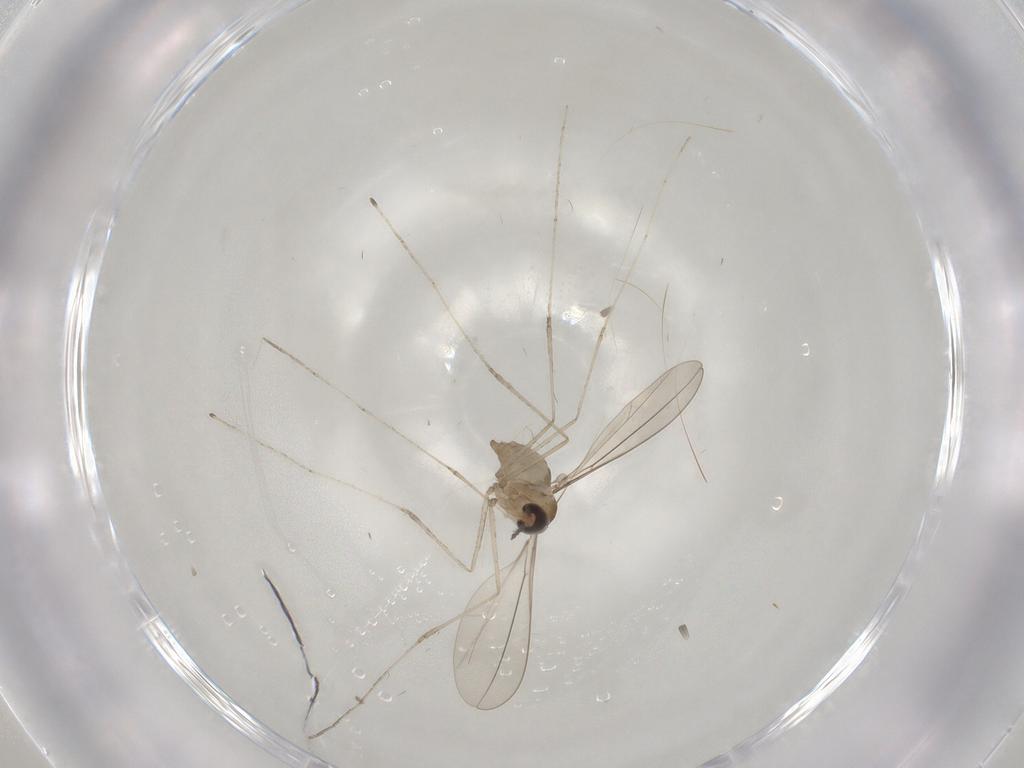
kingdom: Animalia
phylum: Arthropoda
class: Insecta
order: Diptera
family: Cecidomyiidae
